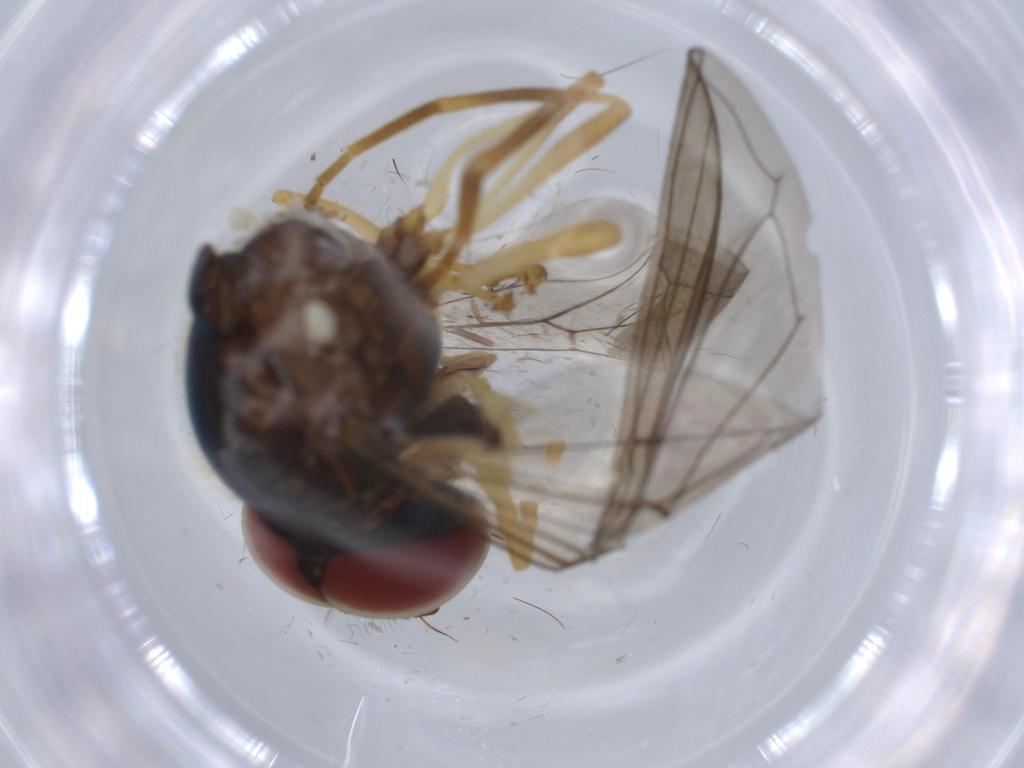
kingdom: Animalia
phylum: Arthropoda
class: Insecta
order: Diptera
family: Syrphidae
